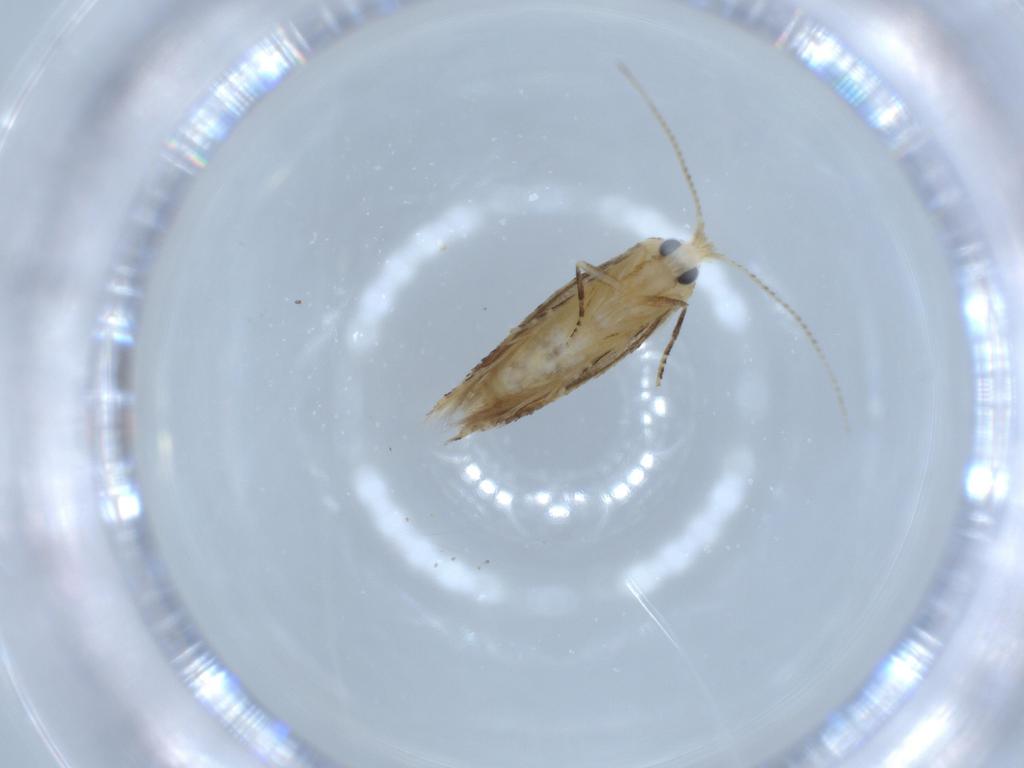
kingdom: Animalia
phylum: Arthropoda
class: Insecta
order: Lepidoptera
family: Bucculatricidae
